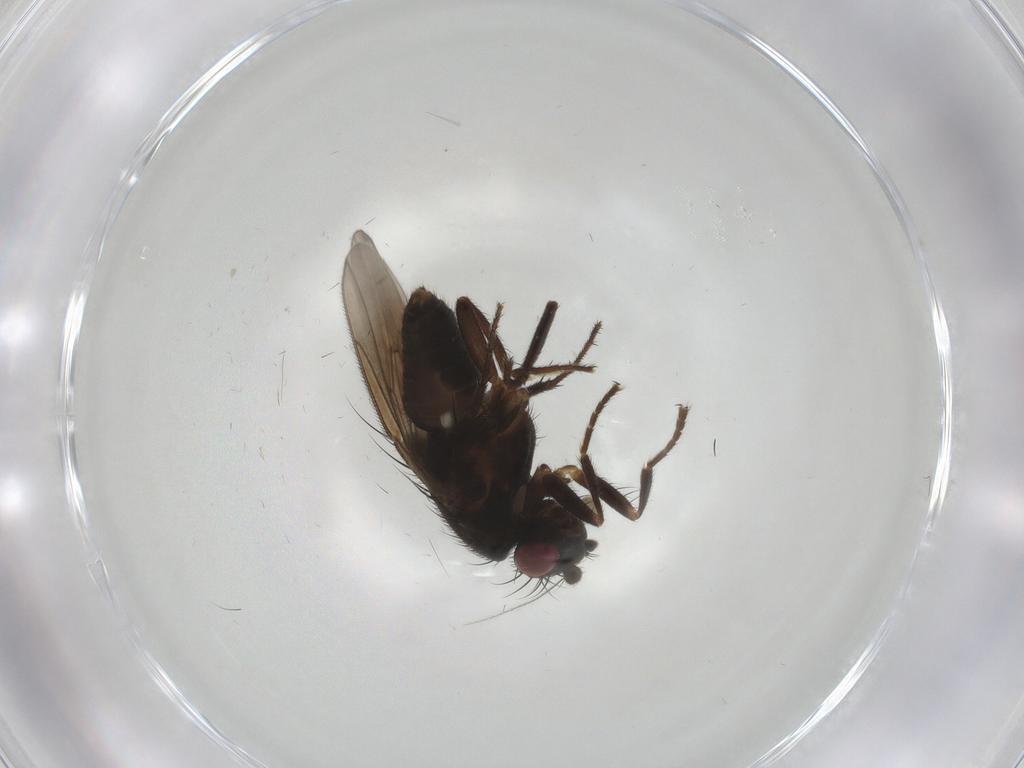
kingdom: Animalia
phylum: Arthropoda
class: Insecta
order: Diptera
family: Sphaeroceridae
